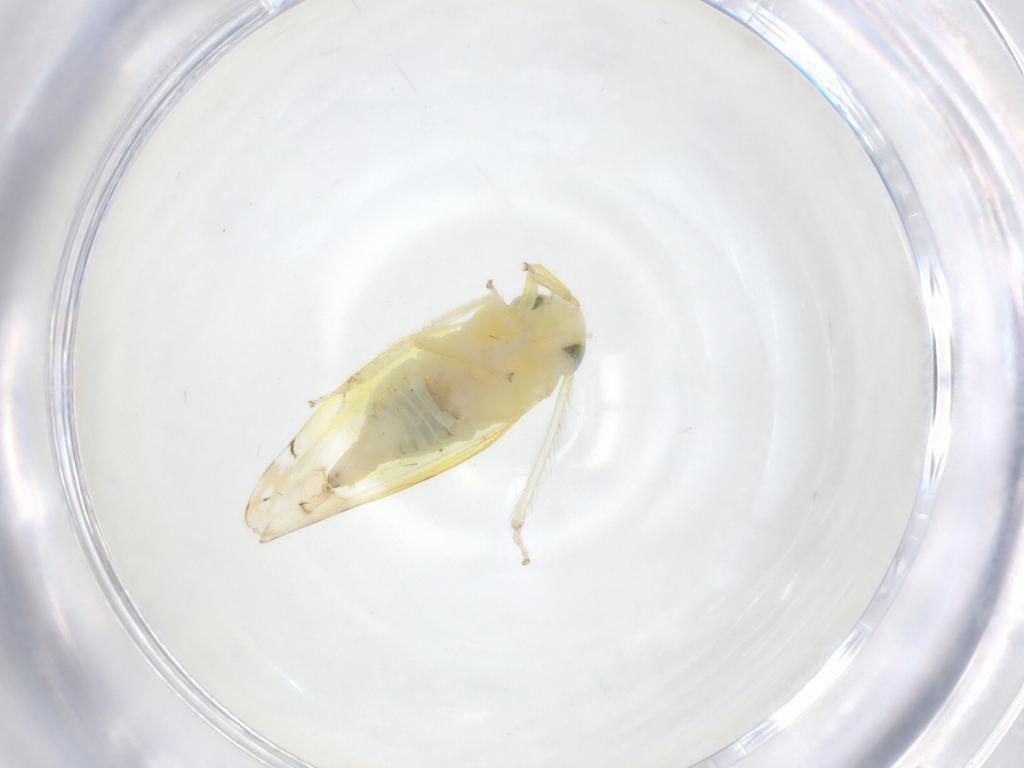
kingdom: Animalia
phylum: Arthropoda
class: Insecta
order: Hemiptera
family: Cicadellidae
